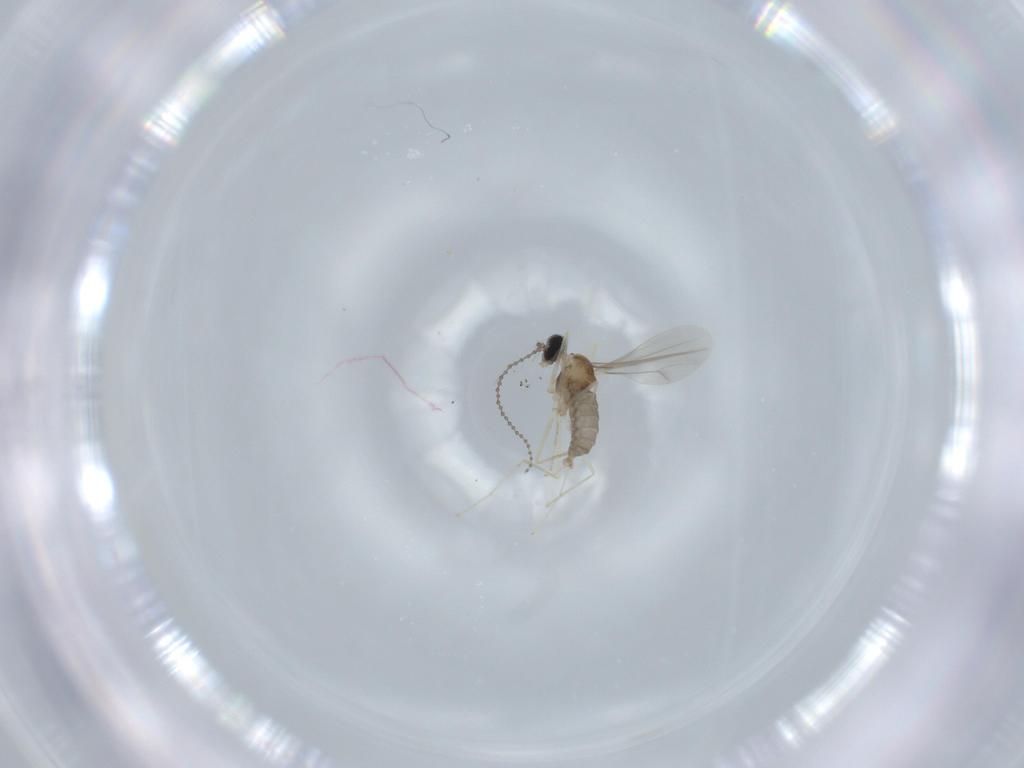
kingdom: Animalia
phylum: Arthropoda
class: Insecta
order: Diptera
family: Cecidomyiidae
